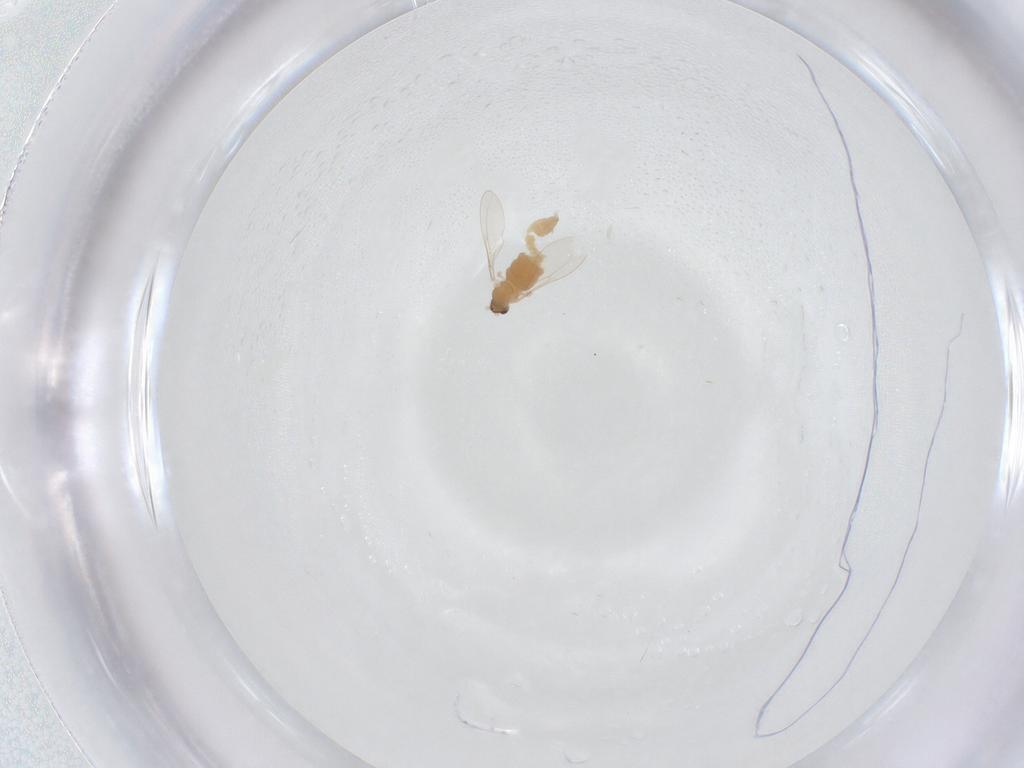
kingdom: Animalia
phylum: Arthropoda
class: Insecta
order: Diptera
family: Cecidomyiidae
